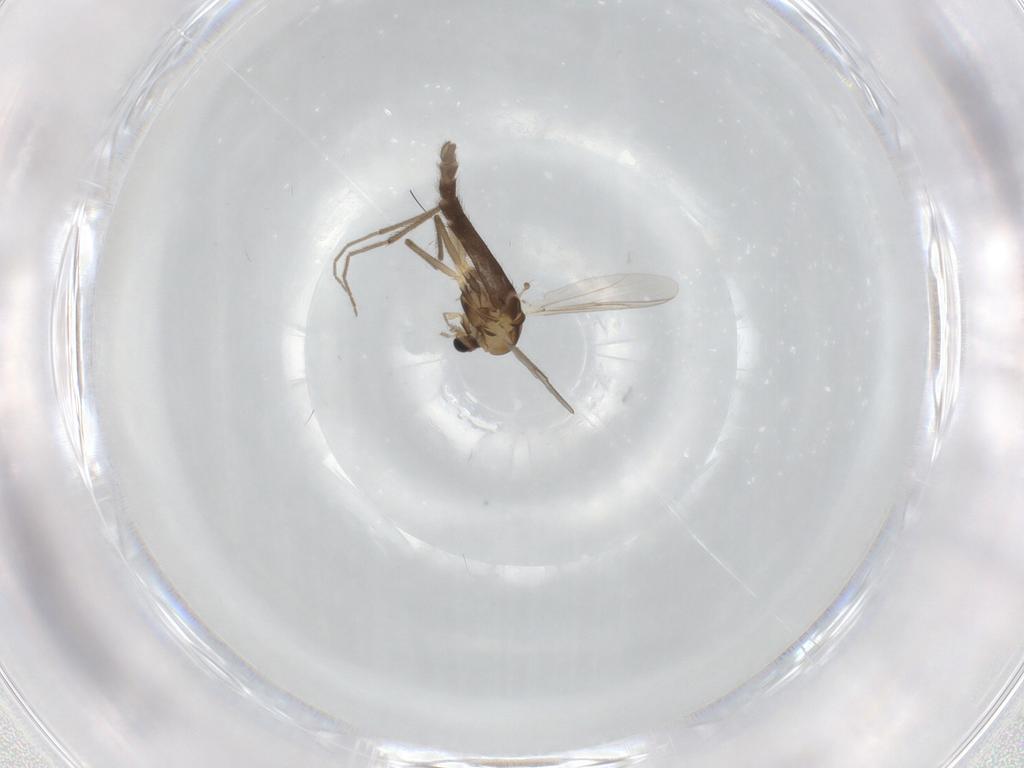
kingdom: Animalia
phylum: Arthropoda
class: Insecta
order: Diptera
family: Chironomidae
